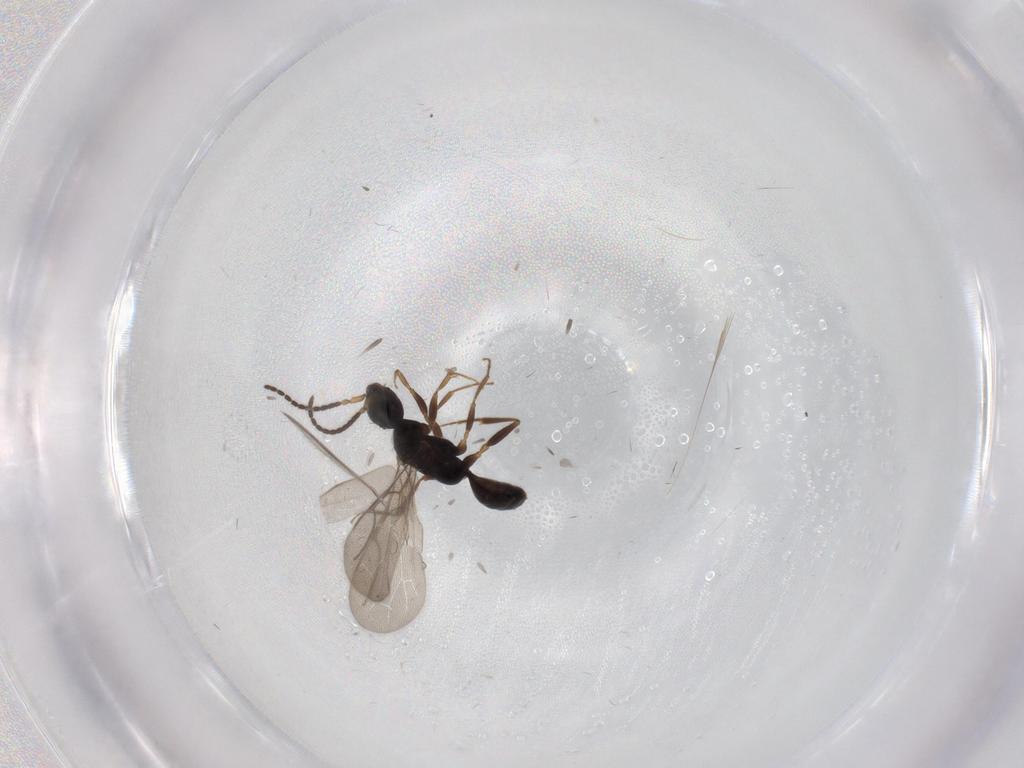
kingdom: Animalia
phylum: Arthropoda
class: Insecta
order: Hymenoptera
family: Bethylidae
